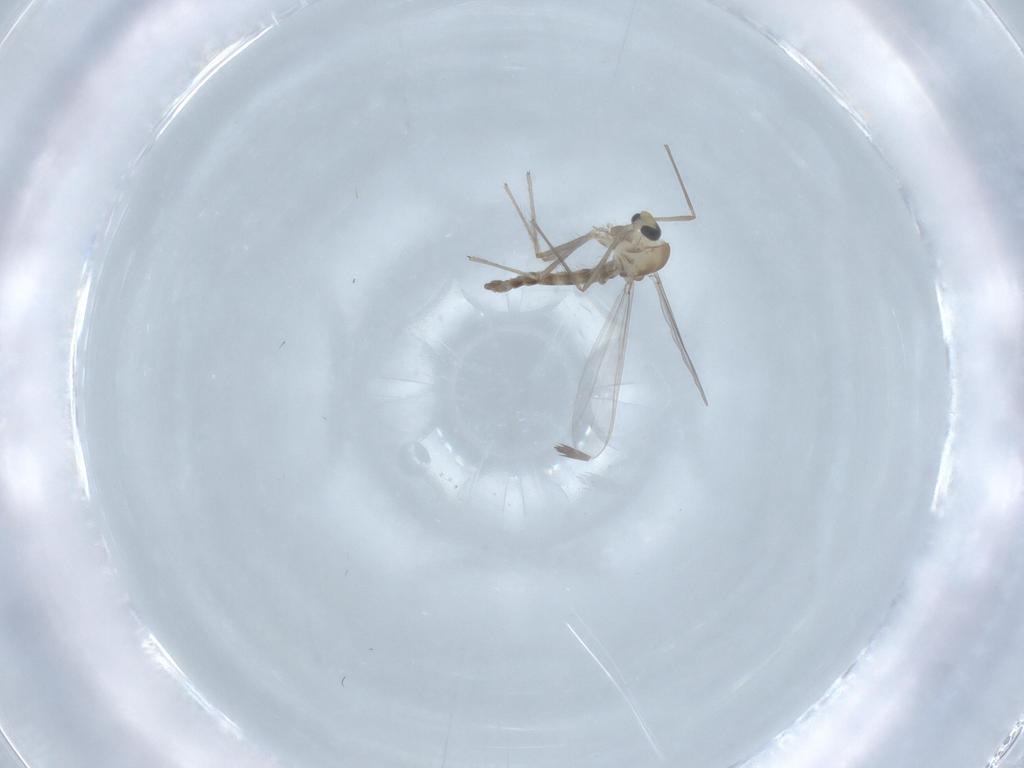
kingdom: Animalia
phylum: Arthropoda
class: Insecta
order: Diptera
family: Chironomidae
